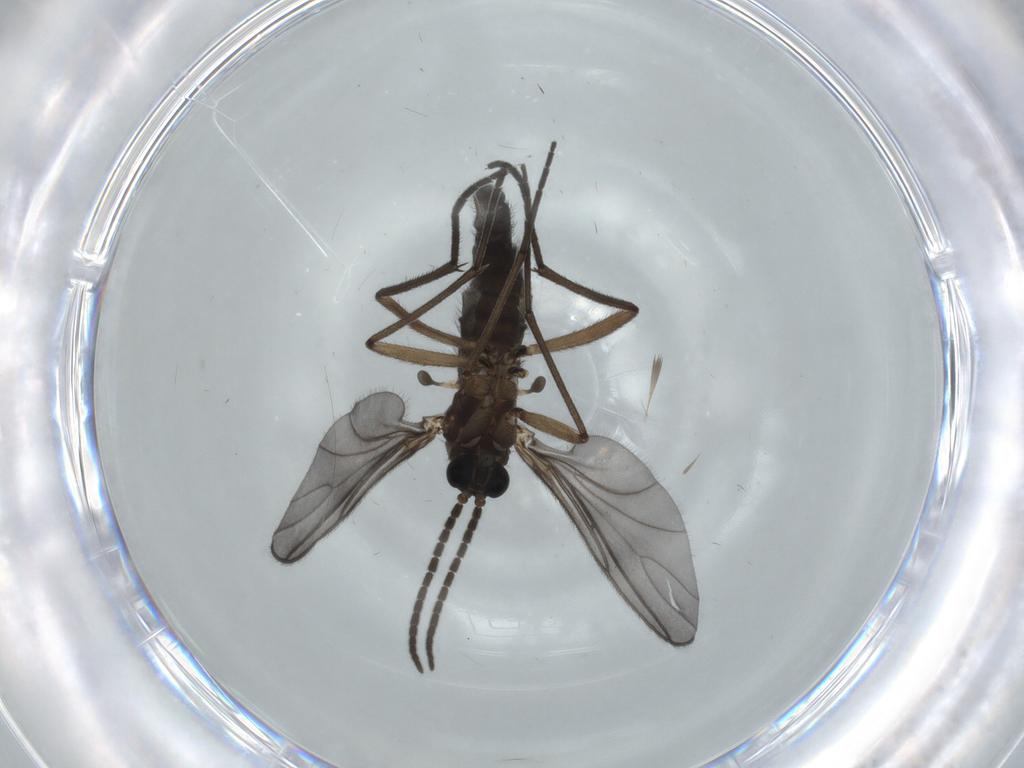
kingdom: Animalia
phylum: Arthropoda
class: Insecta
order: Diptera
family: Sciaridae
